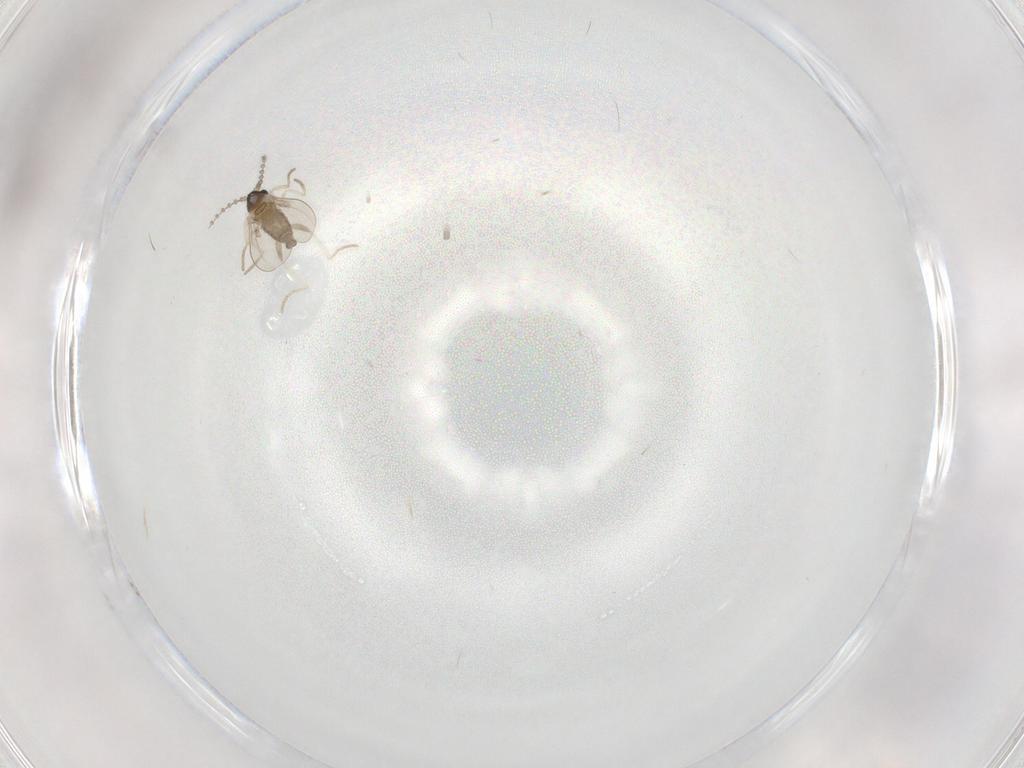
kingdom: Animalia
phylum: Arthropoda
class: Insecta
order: Diptera
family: Cecidomyiidae
